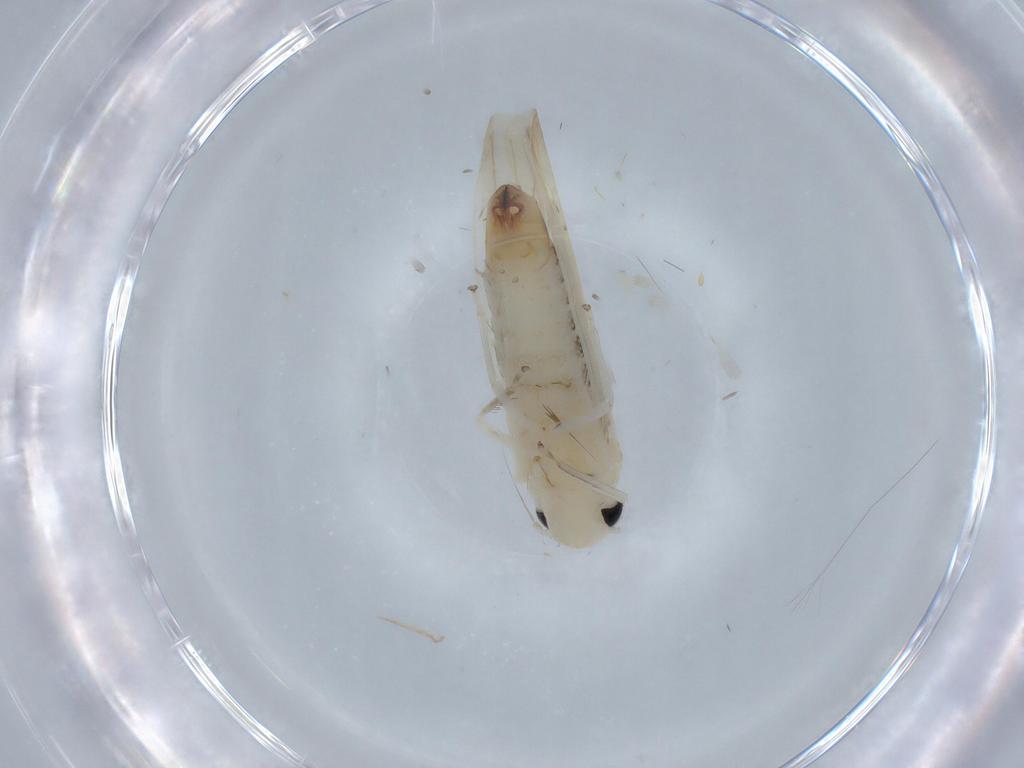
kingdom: Animalia
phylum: Arthropoda
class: Insecta
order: Hemiptera
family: Cicadellidae
